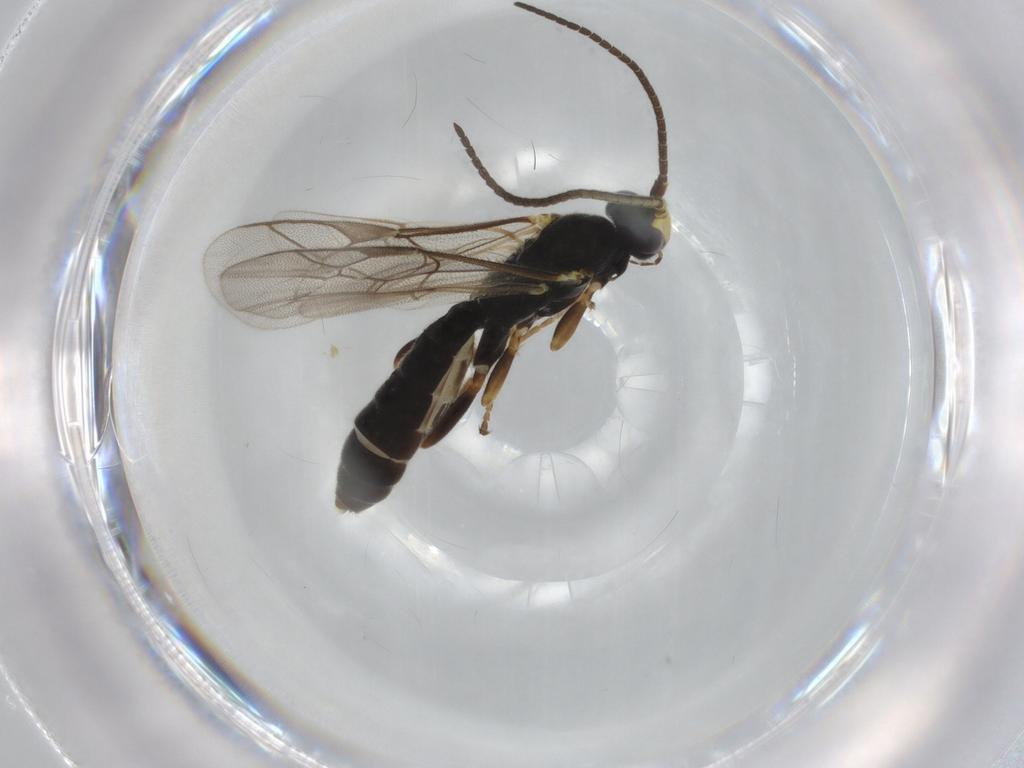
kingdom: Animalia
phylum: Arthropoda
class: Insecta
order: Hymenoptera
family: Ichneumonidae
